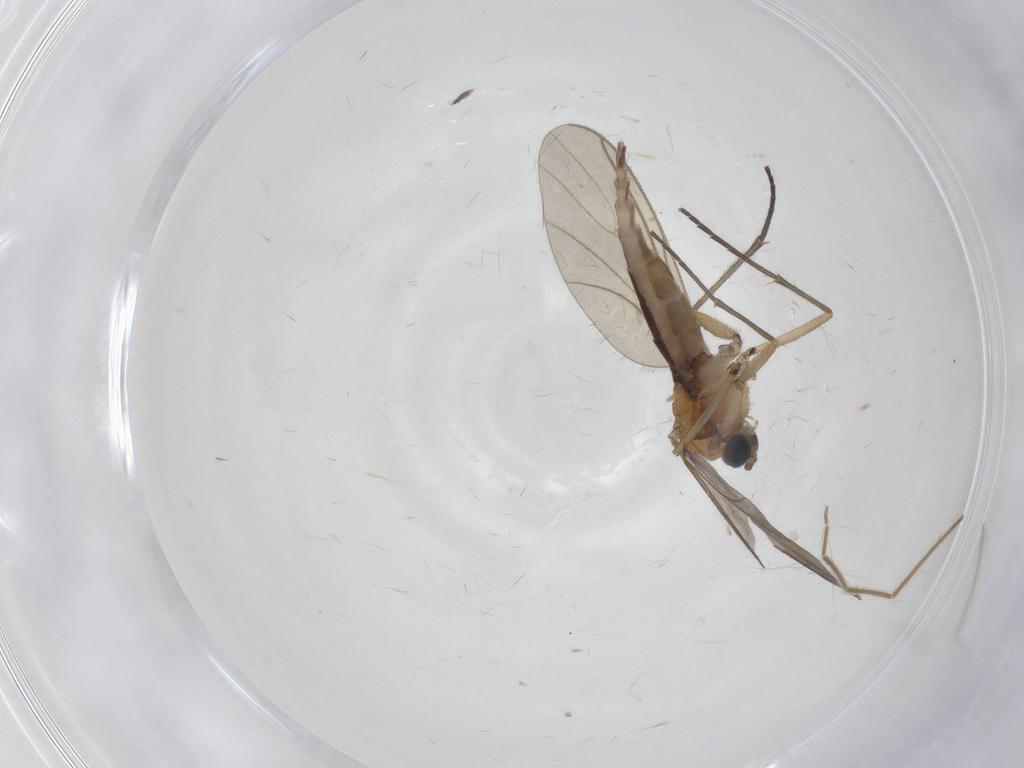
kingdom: Animalia
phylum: Arthropoda
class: Insecta
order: Diptera
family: Sciaridae
